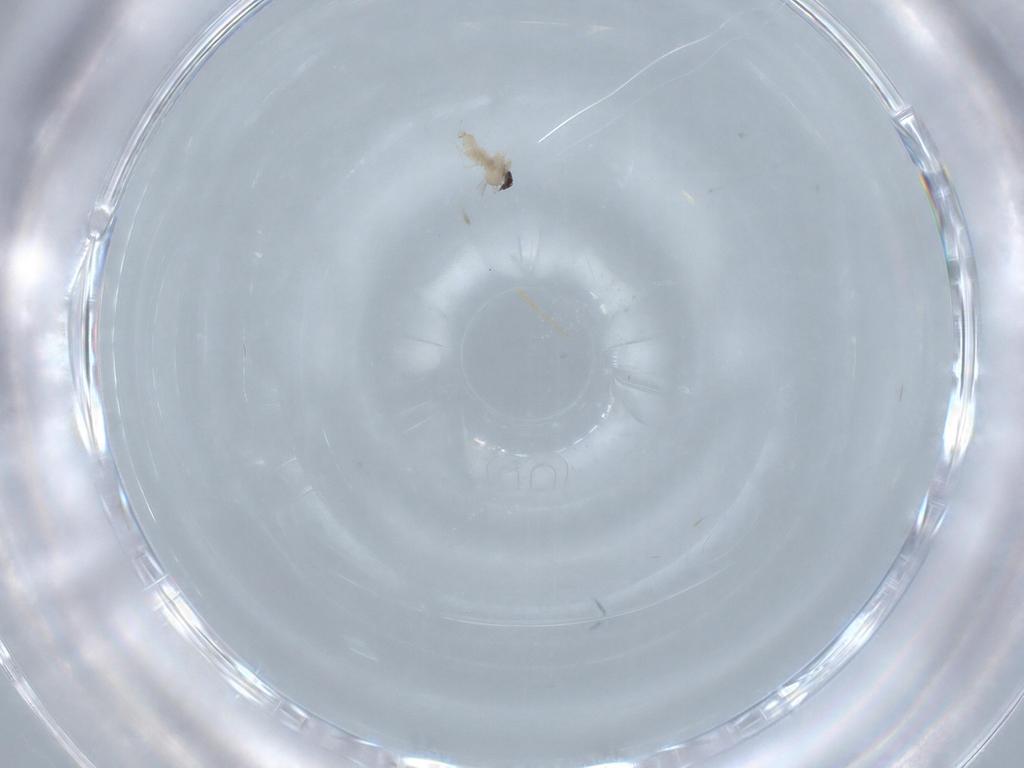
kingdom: Animalia
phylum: Arthropoda
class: Insecta
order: Diptera
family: Cecidomyiidae
